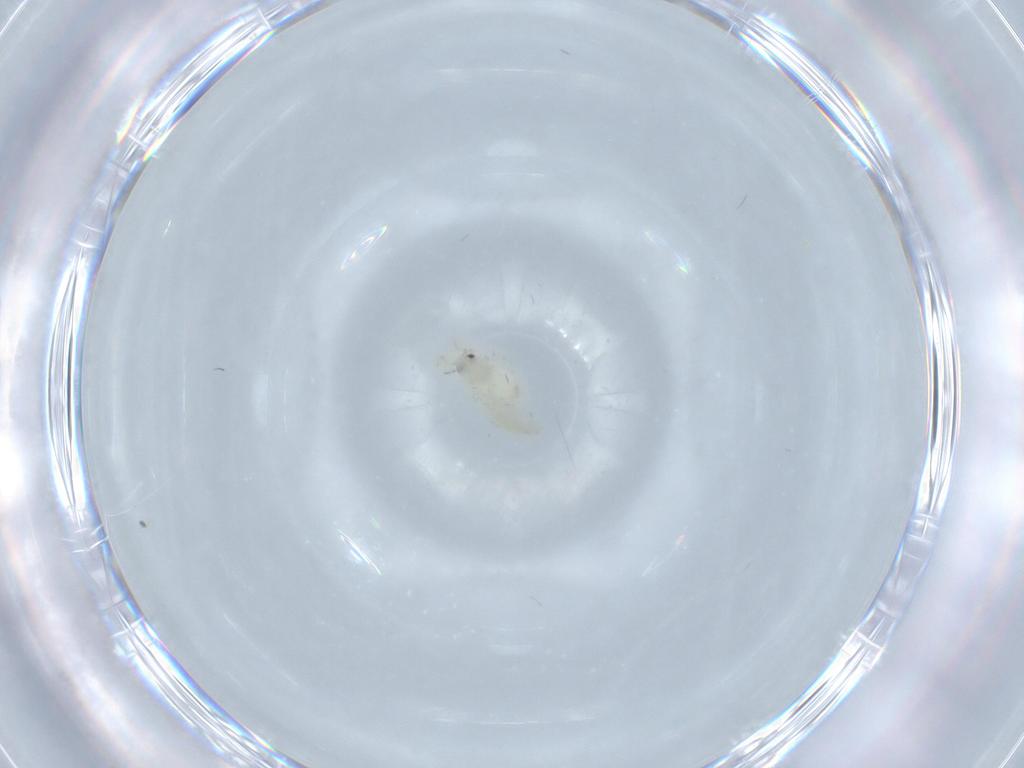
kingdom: Animalia
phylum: Arthropoda
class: Insecta
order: Hemiptera
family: Aleyrodidae
